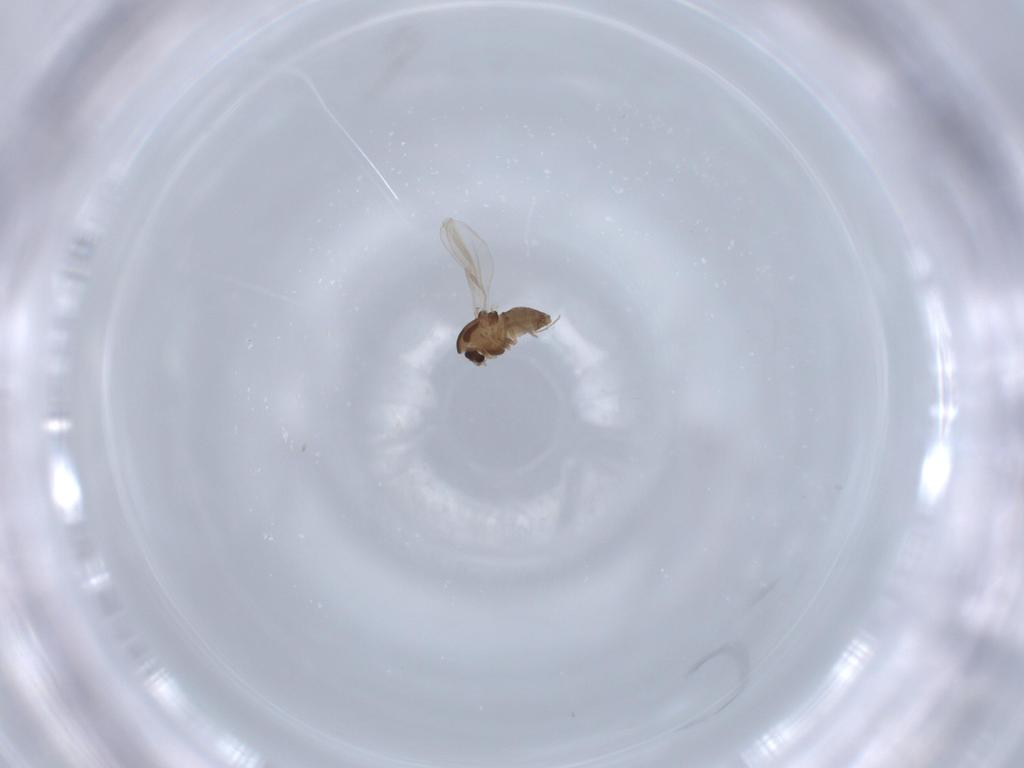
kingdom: Animalia
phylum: Arthropoda
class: Insecta
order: Diptera
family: Chironomidae
